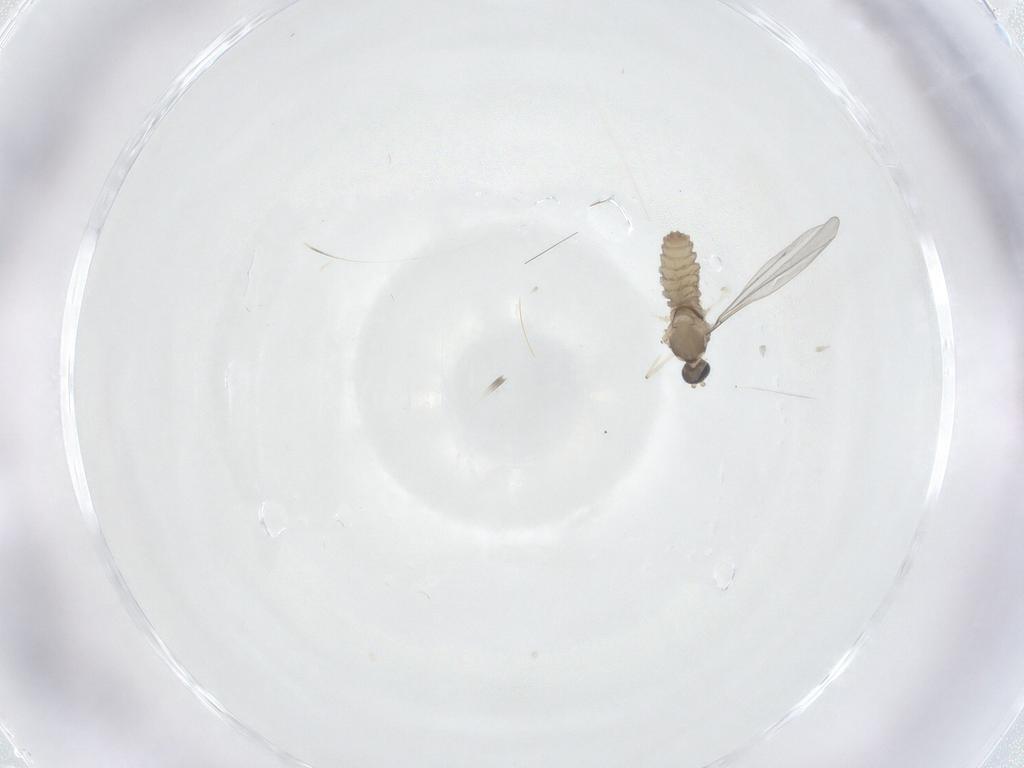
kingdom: Animalia
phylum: Arthropoda
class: Insecta
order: Diptera
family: Cecidomyiidae
